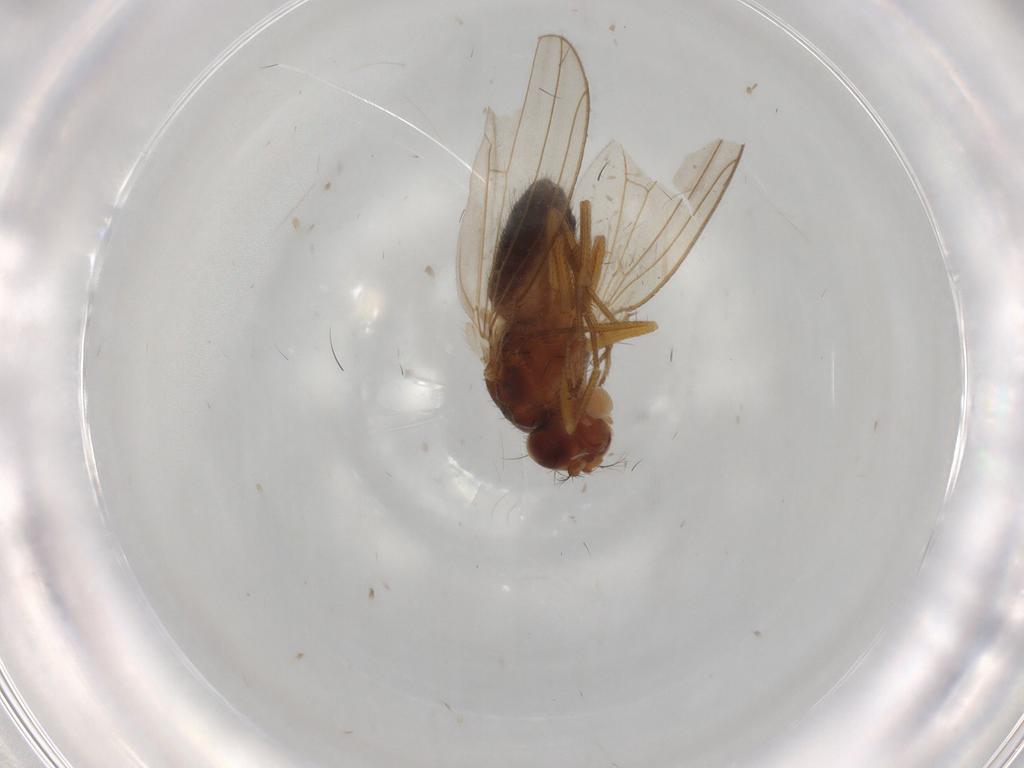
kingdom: Animalia
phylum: Arthropoda
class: Insecta
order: Diptera
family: Drosophilidae
